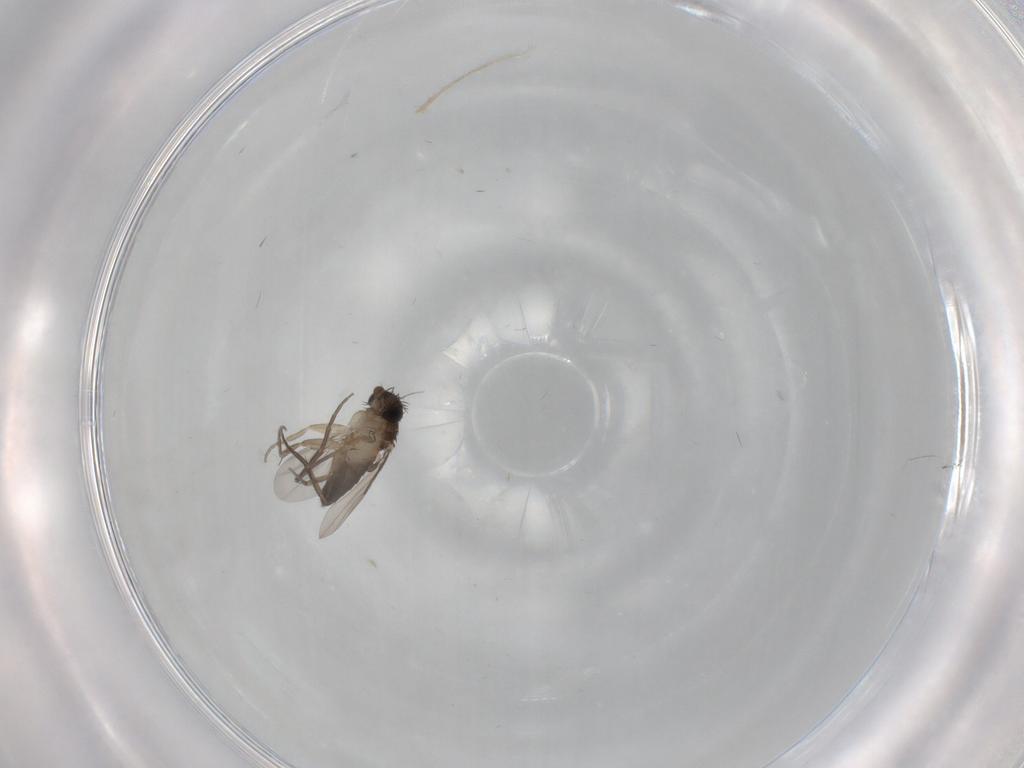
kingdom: Animalia
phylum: Arthropoda
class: Insecta
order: Diptera
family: Phoridae
